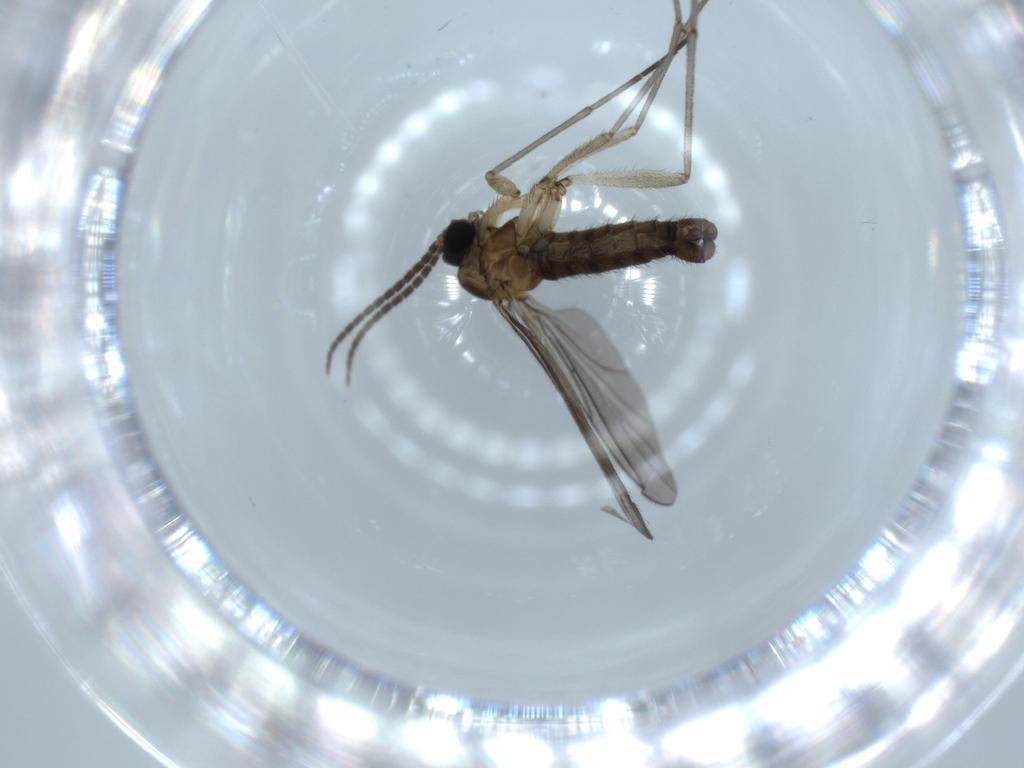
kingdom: Animalia
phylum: Arthropoda
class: Insecta
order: Diptera
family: Sciaridae
